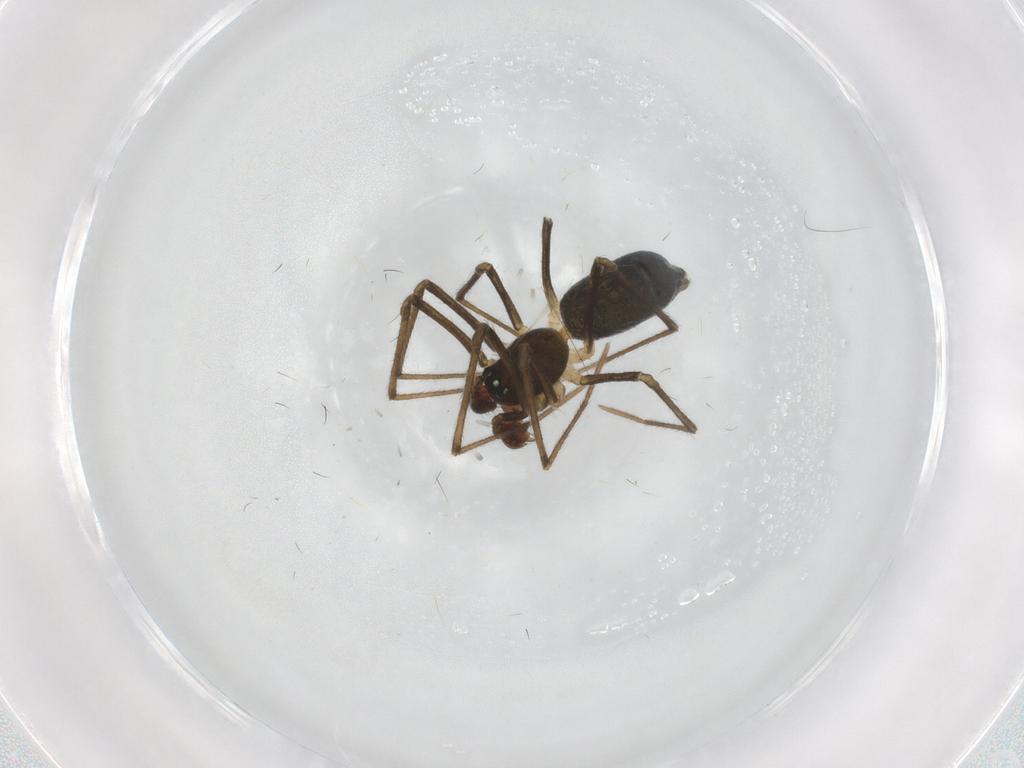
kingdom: Animalia
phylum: Arthropoda
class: Arachnida
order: Araneae
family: Linyphiidae
